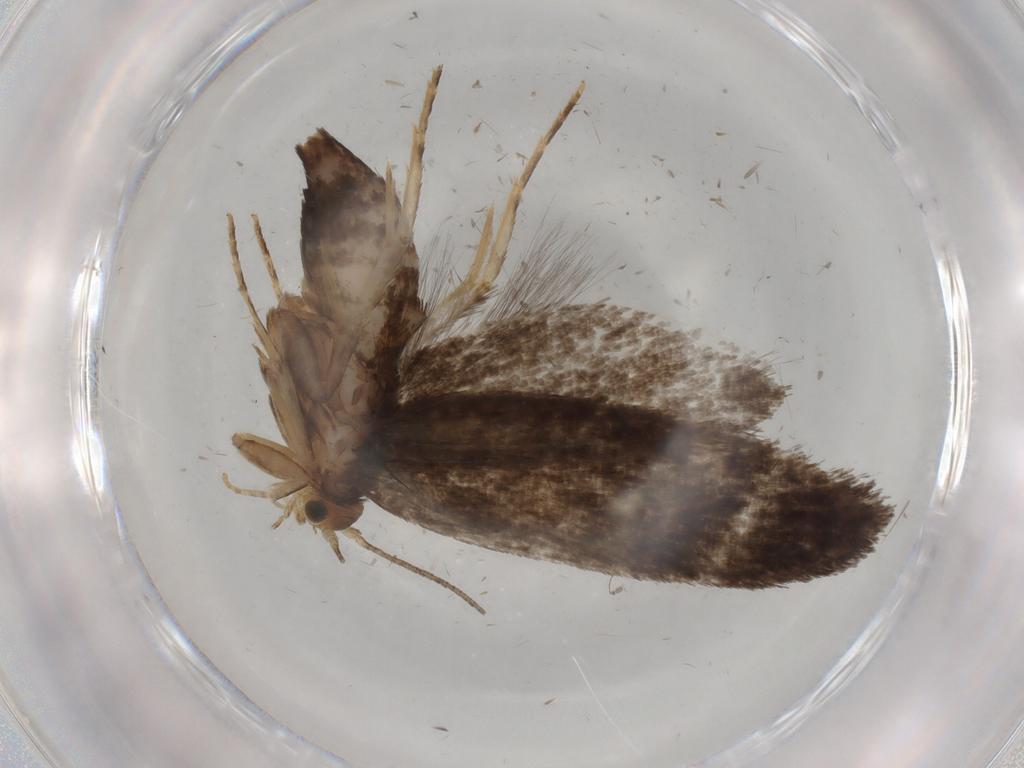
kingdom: Animalia
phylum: Arthropoda
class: Insecta
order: Lepidoptera
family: Tineidae
